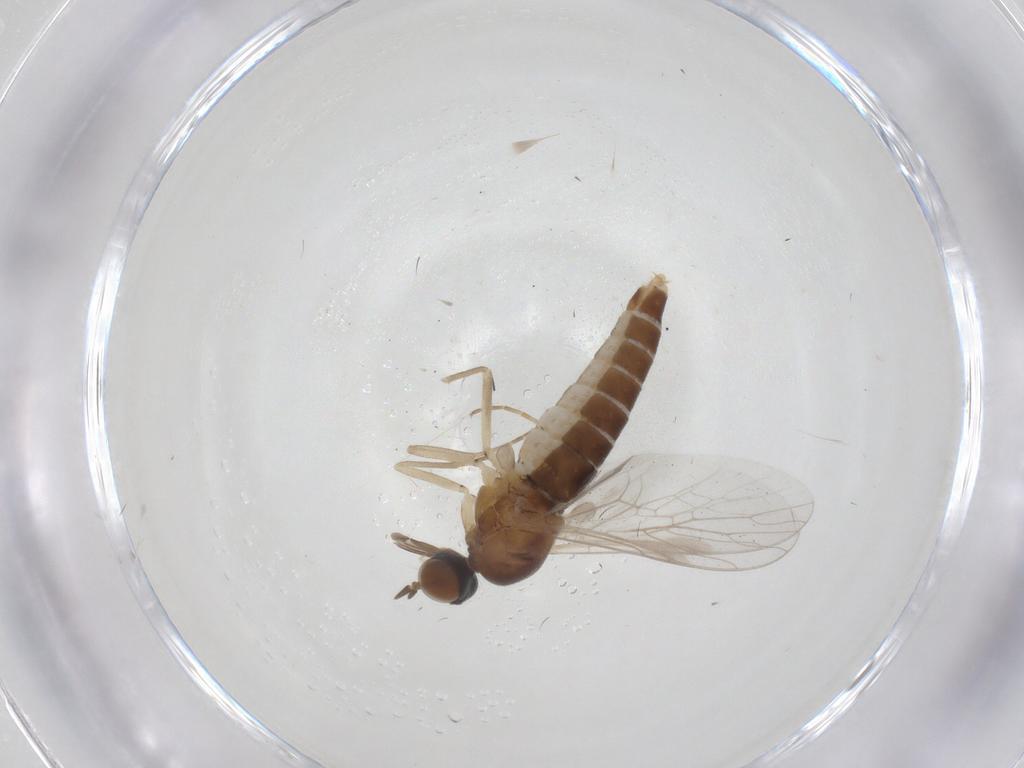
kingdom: Animalia
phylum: Arthropoda
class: Insecta
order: Diptera
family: Scenopinidae
